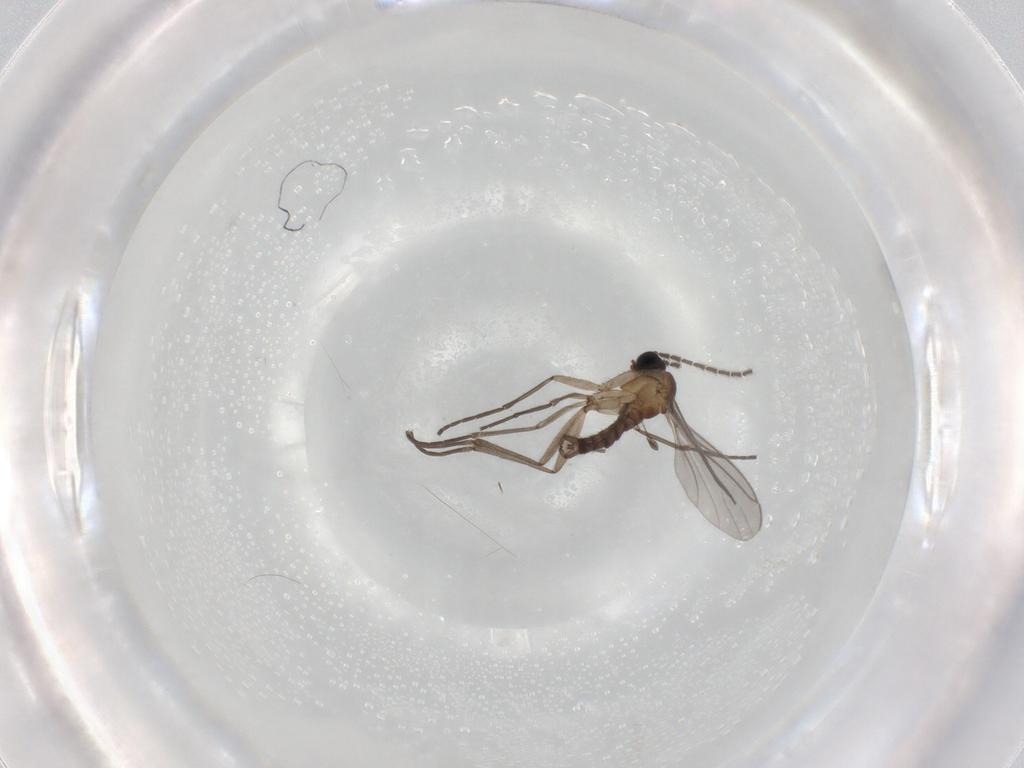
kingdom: Animalia
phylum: Arthropoda
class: Insecta
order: Diptera
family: Sciaridae
